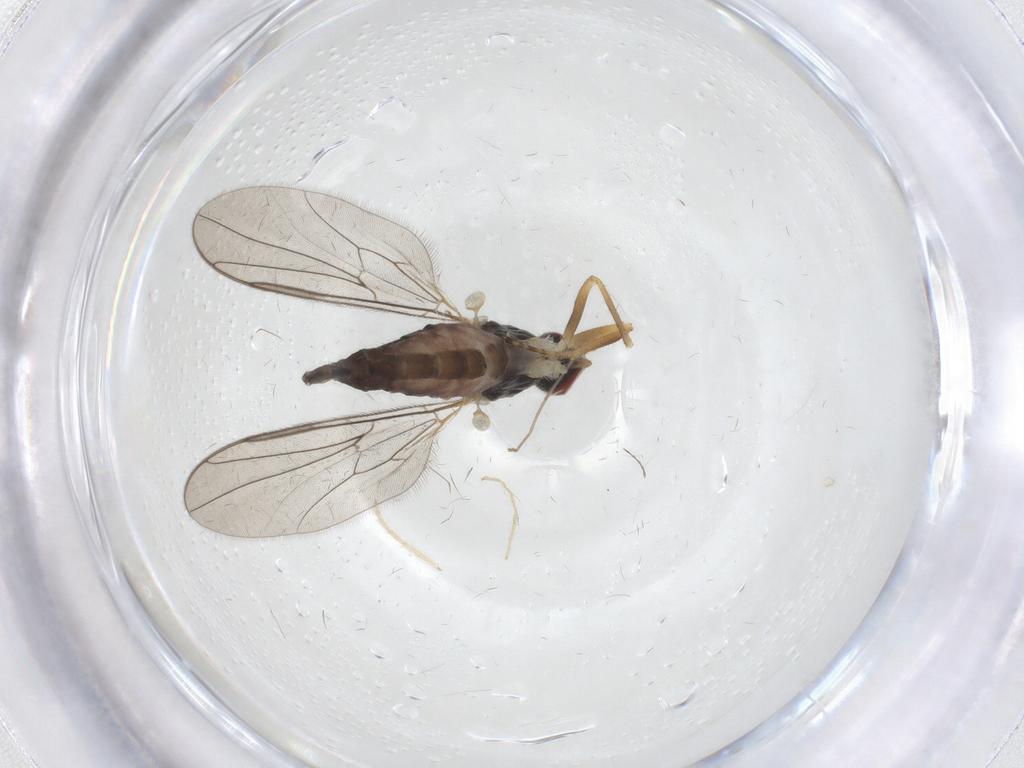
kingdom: Animalia
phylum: Arthropoda
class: Insecta
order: Diptera
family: Hybotidae
